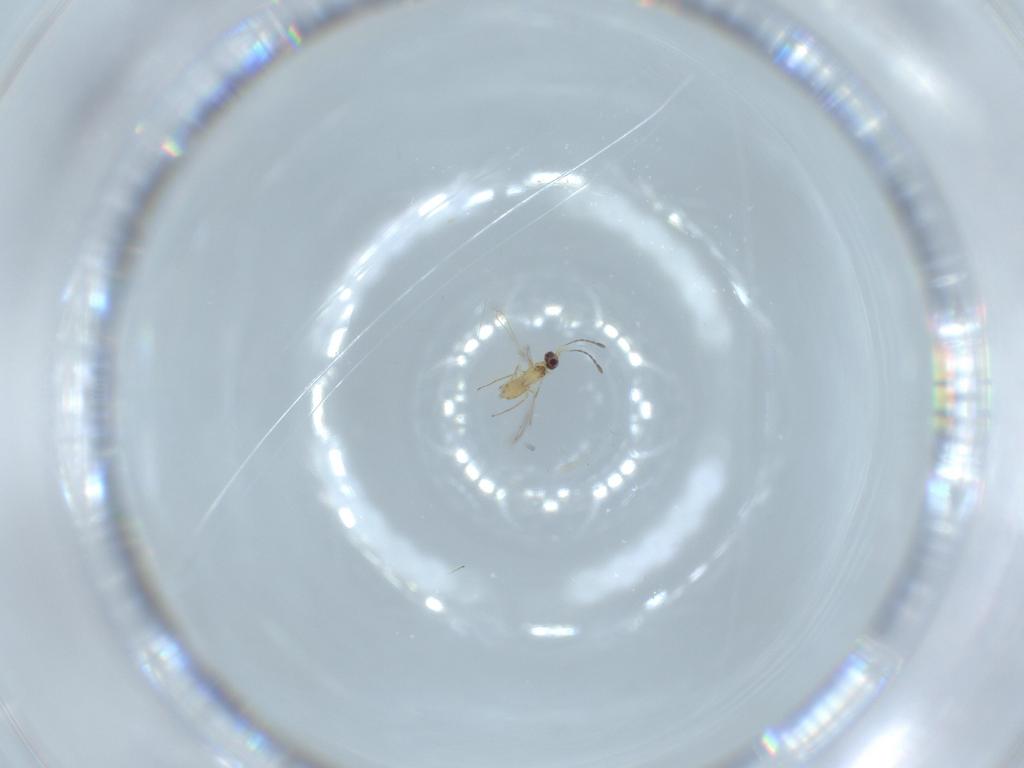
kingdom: Animalia
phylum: Arthropoda
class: Insecta
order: Hymenoptera
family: Mymaridae
